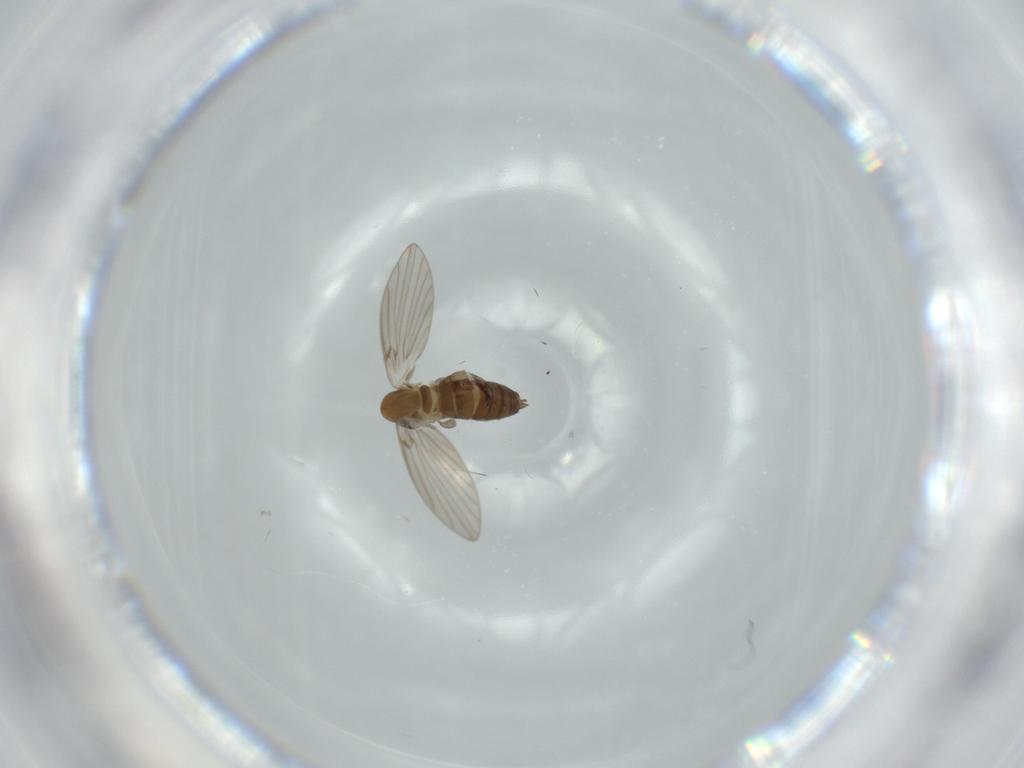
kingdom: Animalia
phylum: Arthropoda
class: Insecta
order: Diptera
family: Psychodidae
